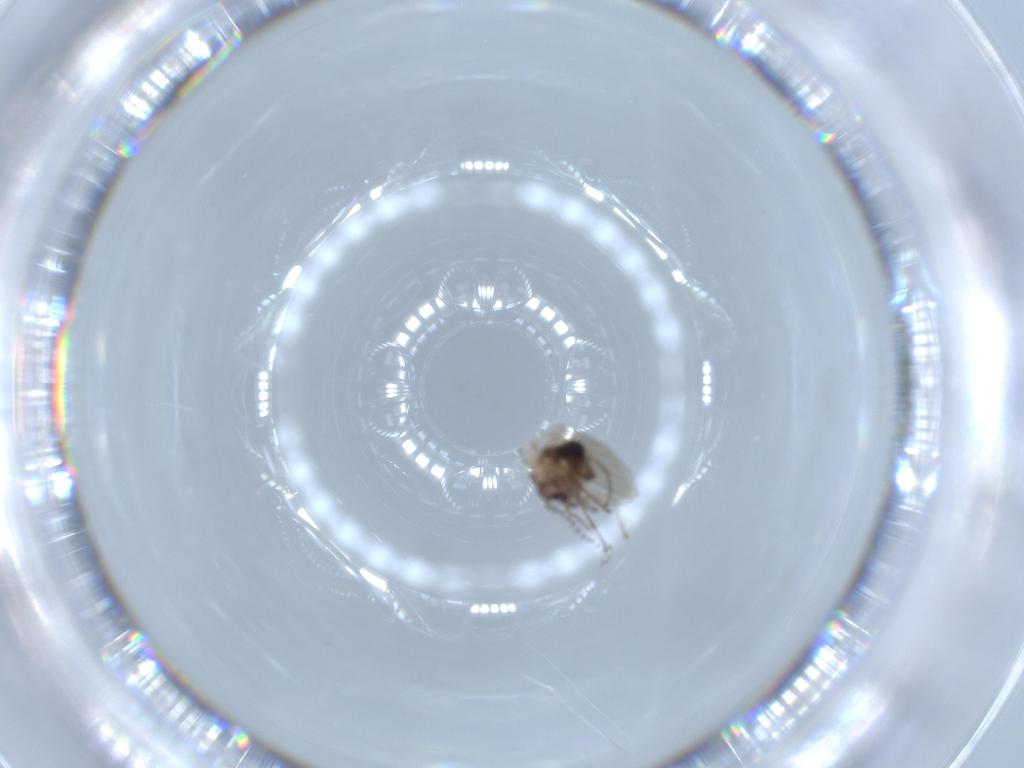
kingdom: Animalia
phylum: Arthropoda
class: Insecta
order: Diptera
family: Psychodidae
